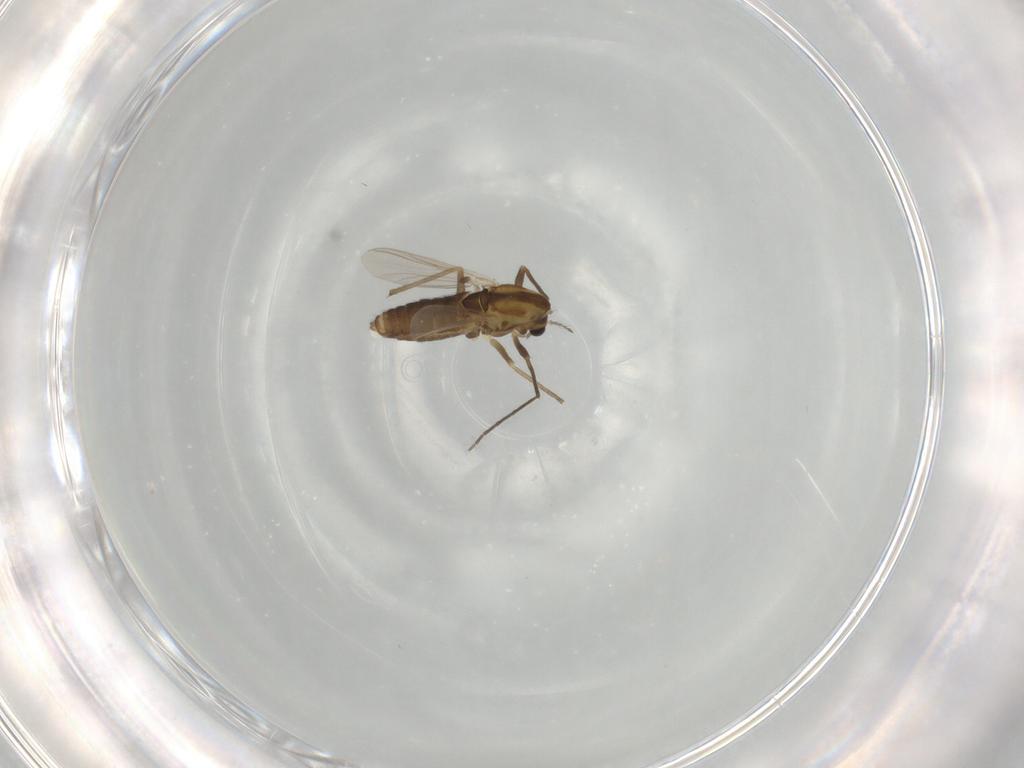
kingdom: Animalia
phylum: Arthropoda
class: Insecta
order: Diptera
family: Chironomidae
